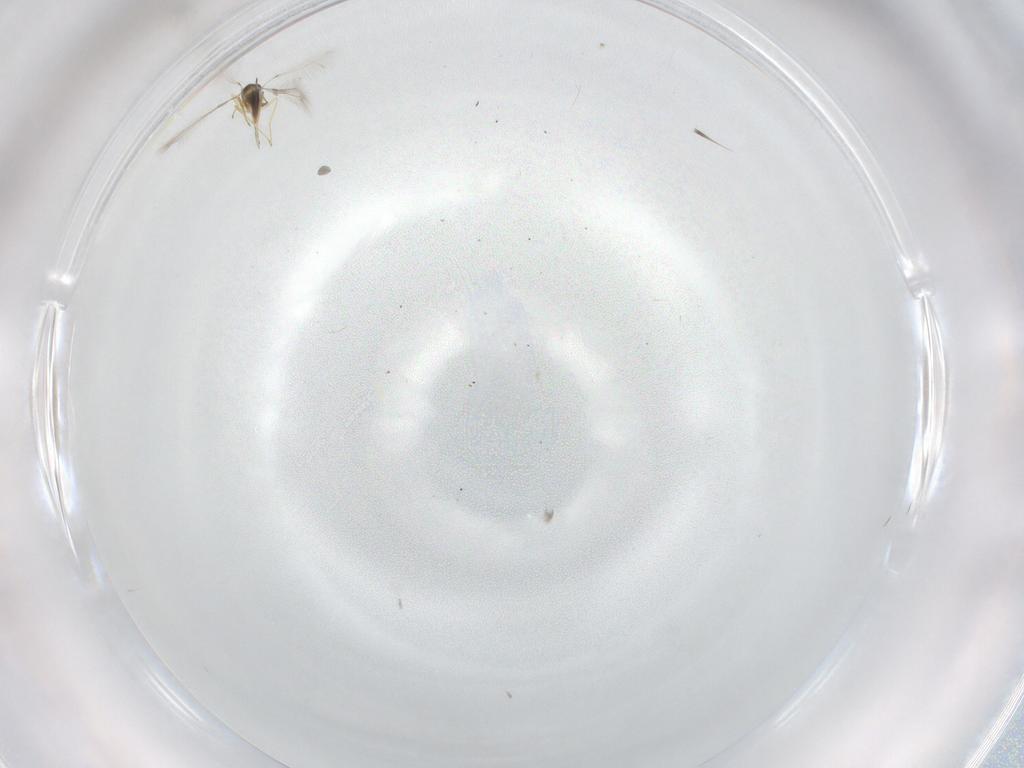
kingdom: Animalia
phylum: Arthropoda
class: Insecta
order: Hymenoptera
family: Mymaridae
